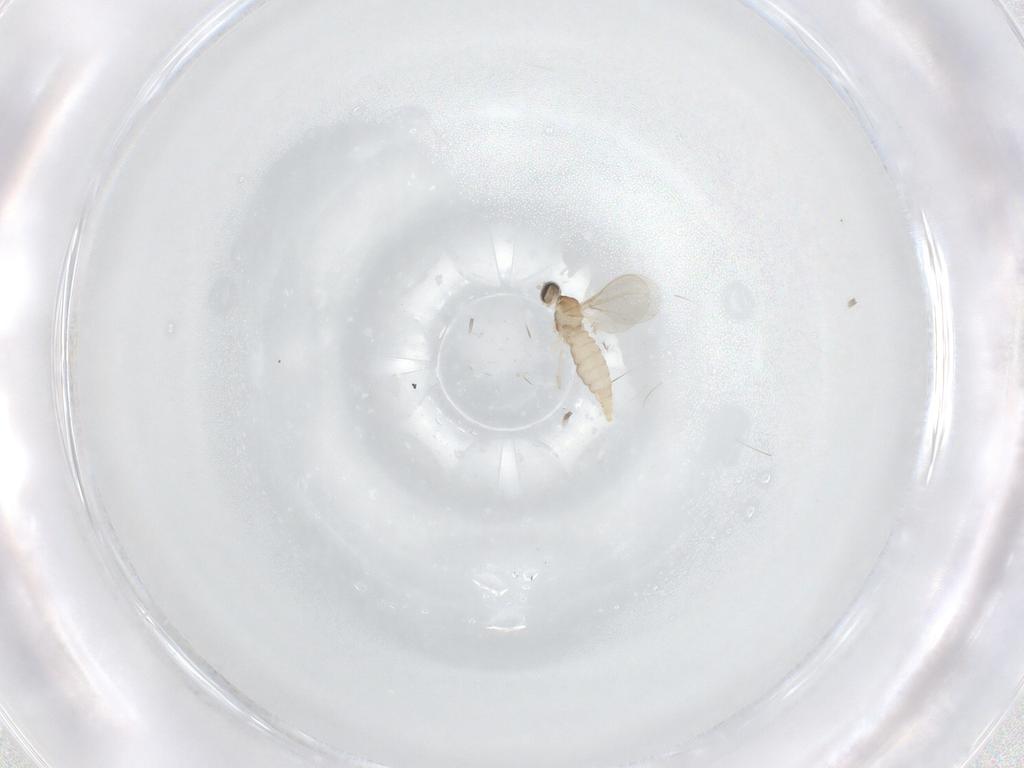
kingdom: Animalia
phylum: Arthropoda
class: Insecta
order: Diptera
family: Cecidomyiidae
